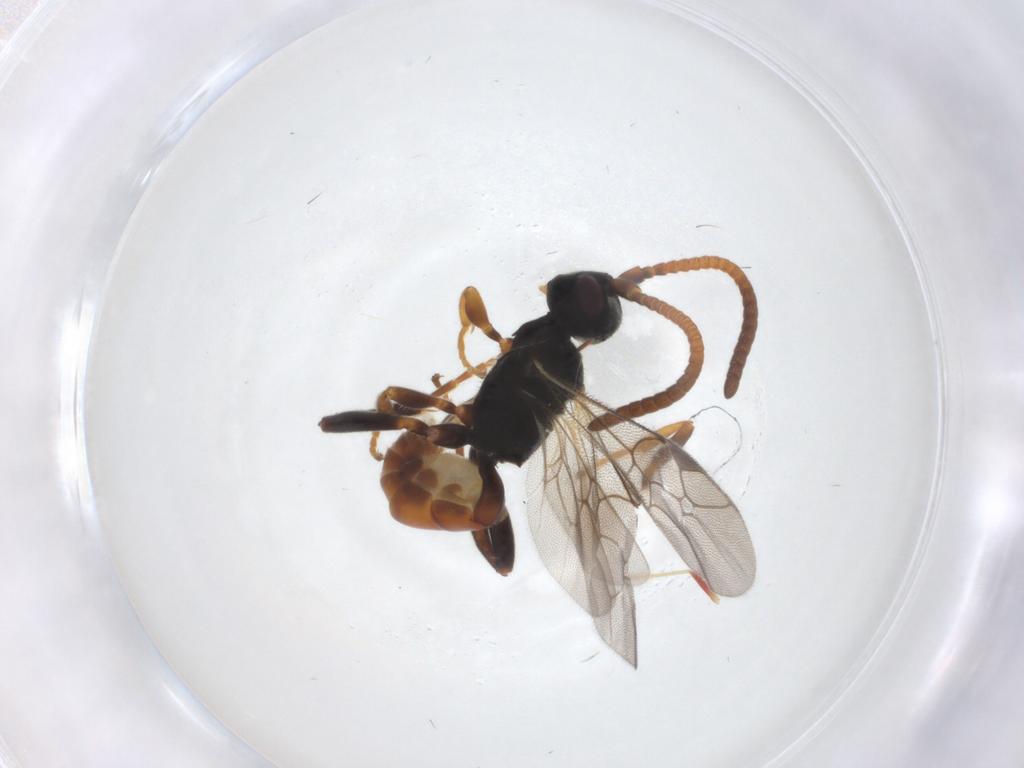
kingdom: Animalia
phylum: Arthropoda
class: Insecta
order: Hymenoptera
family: Ichneumonidae
